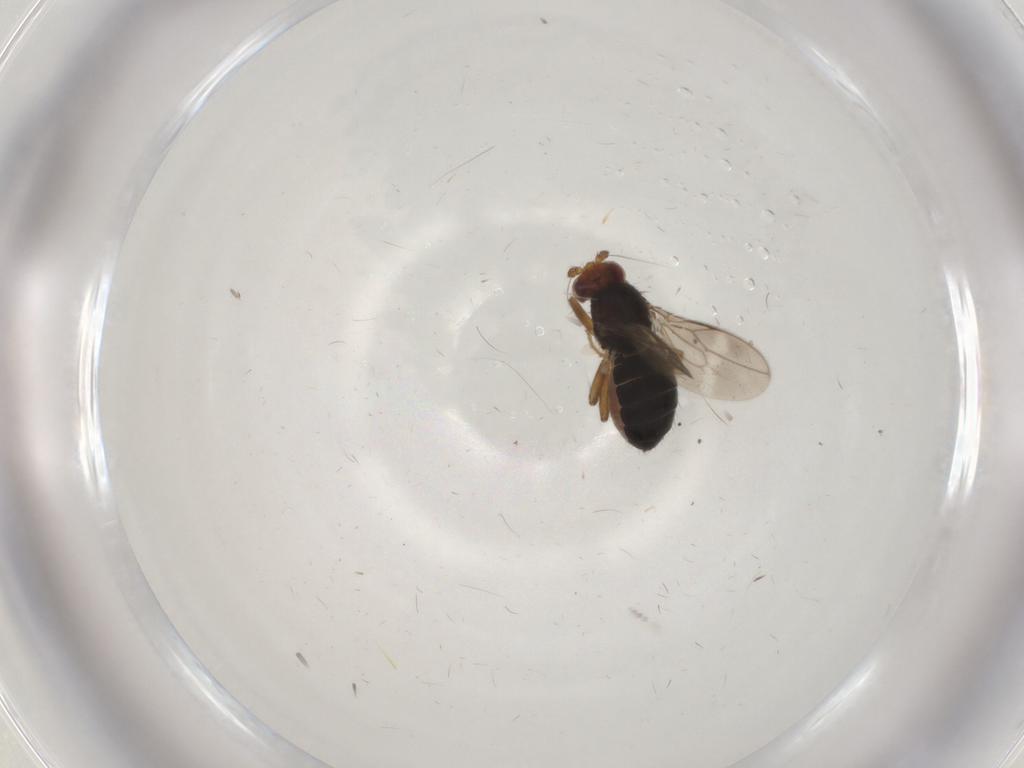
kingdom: Animalia
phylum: Arthropoda
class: Insecta
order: Diptera
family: Sphaeroceridae
